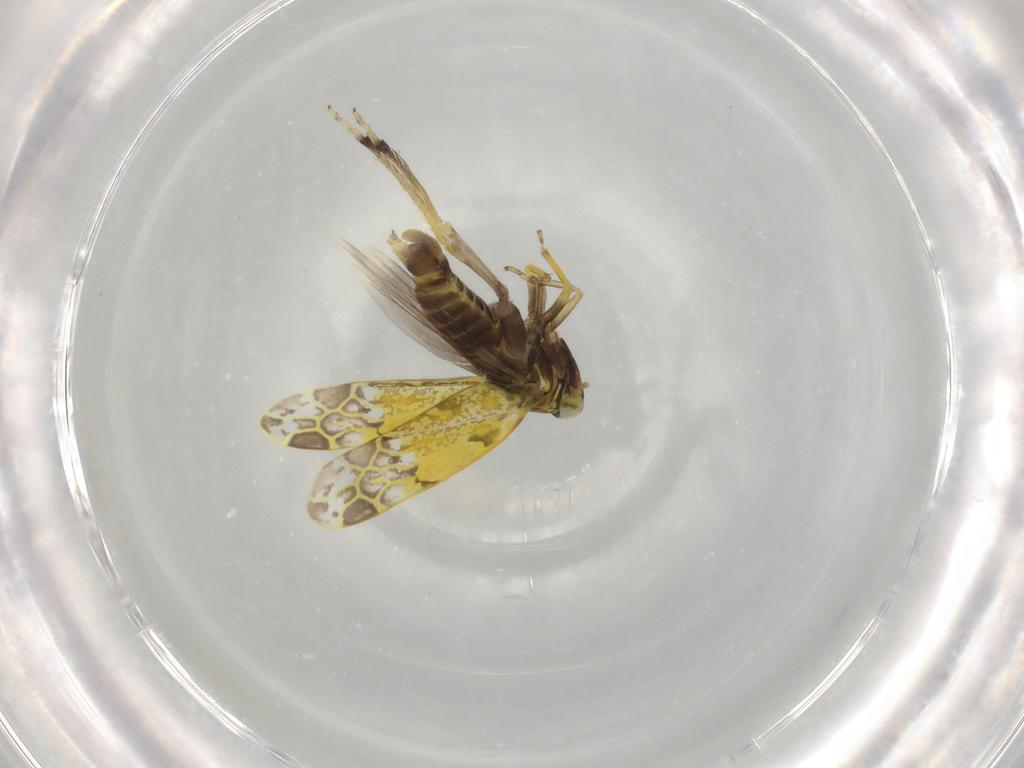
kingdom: Animalia
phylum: Arthropoda
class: Insecta
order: Hemiptera
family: Cicadellidae
